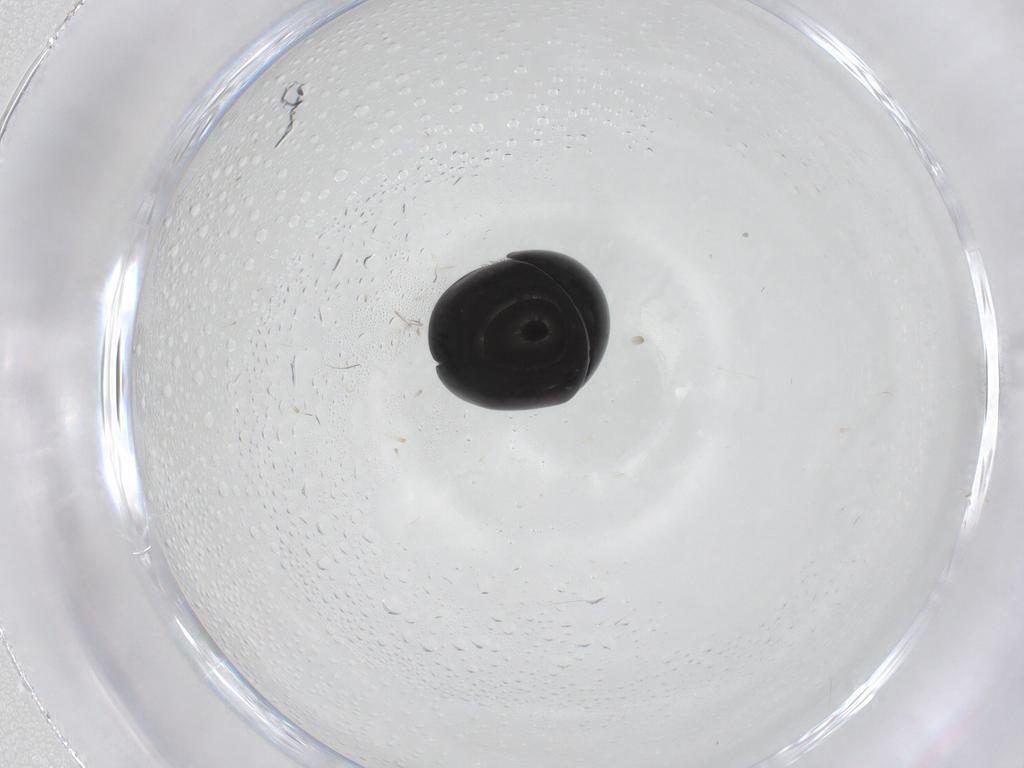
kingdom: Animalia
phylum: Arthropoda
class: Insecta
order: Coleoptera
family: Cybocephalidae
